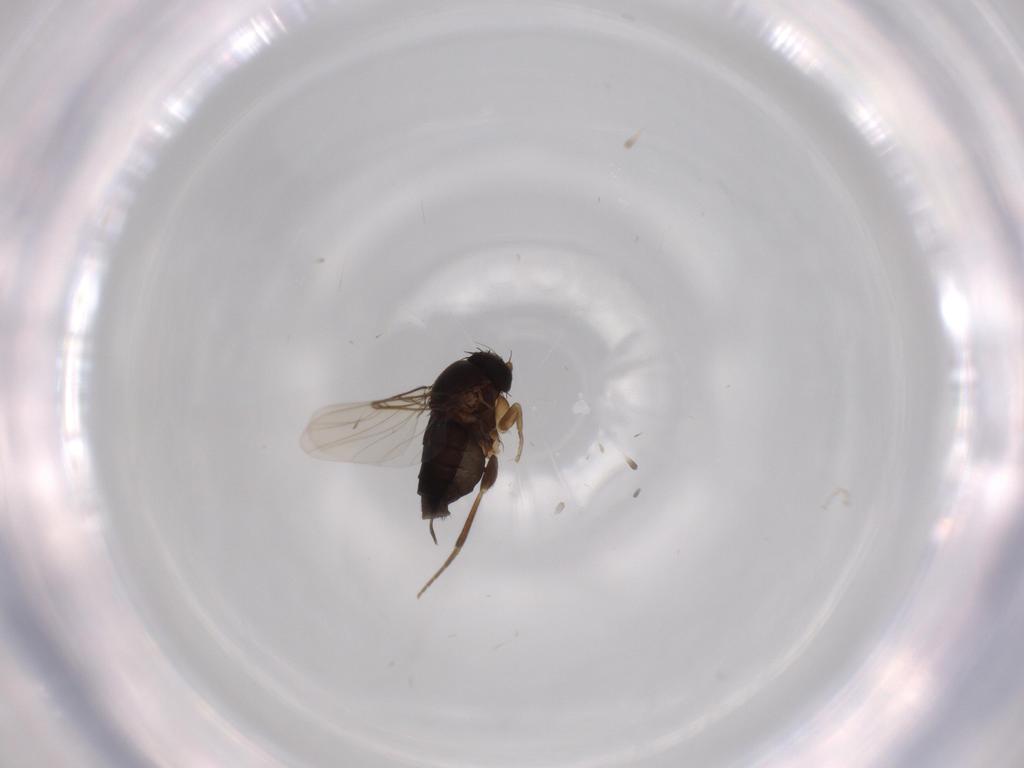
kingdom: Animalia
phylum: Arthropoda
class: Insecta
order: Diptera
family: Phoridae
